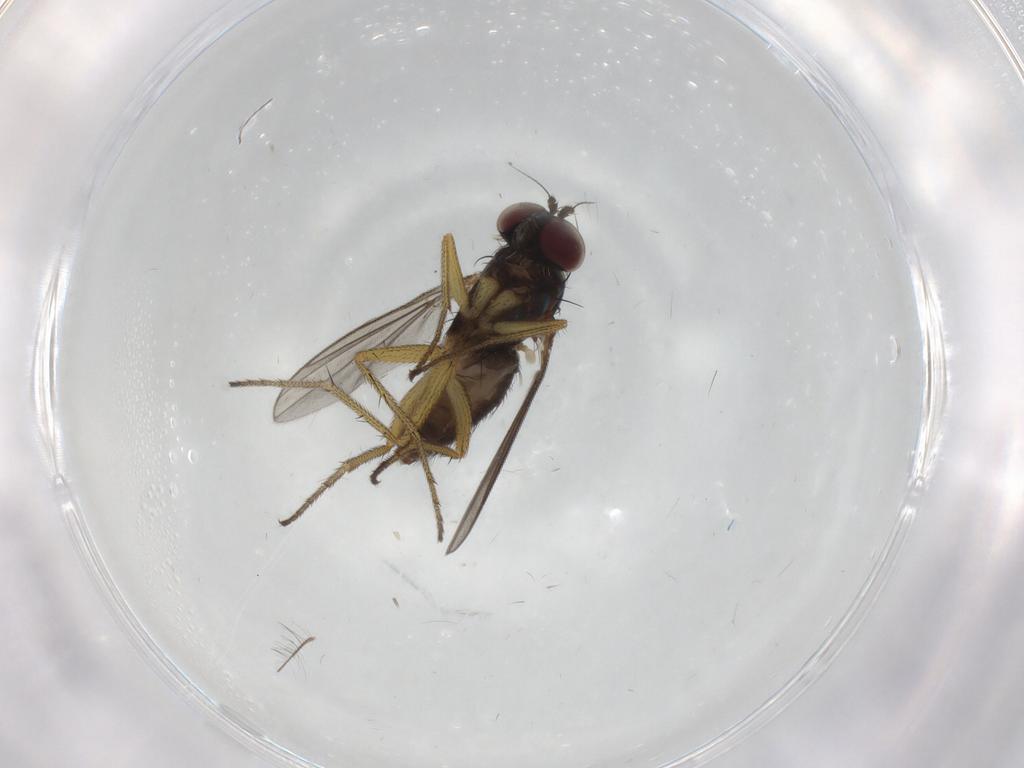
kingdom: Animalia
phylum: Arthropoda
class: Insecta
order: Diptera
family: Dolichopodidae
